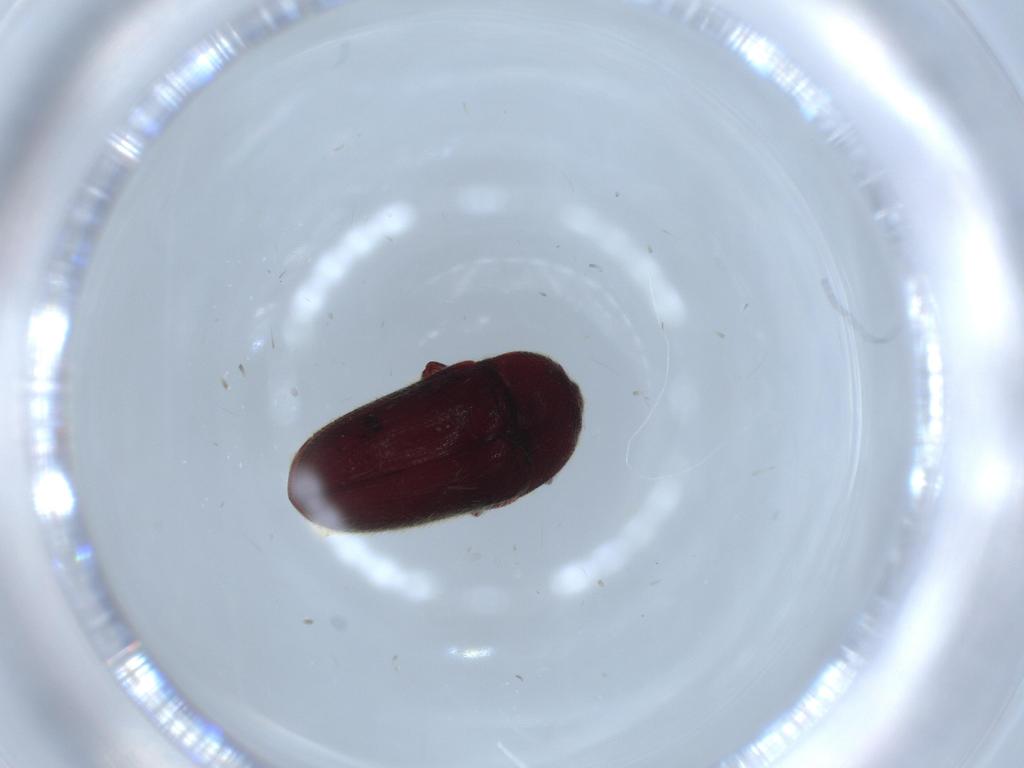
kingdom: Animalia
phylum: Arthropoda
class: Insecta
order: Coleoptera
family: Throscidae
